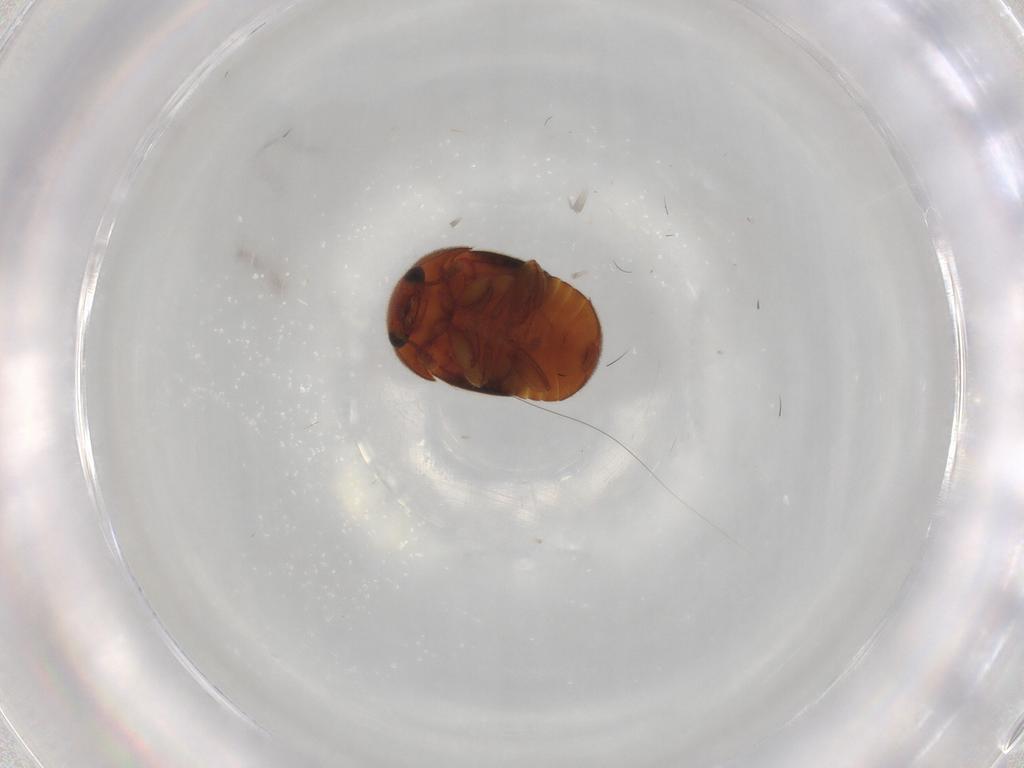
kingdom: Animalia
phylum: Arthropoda
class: Insecta
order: Coleoptera
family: Nitidulidae
